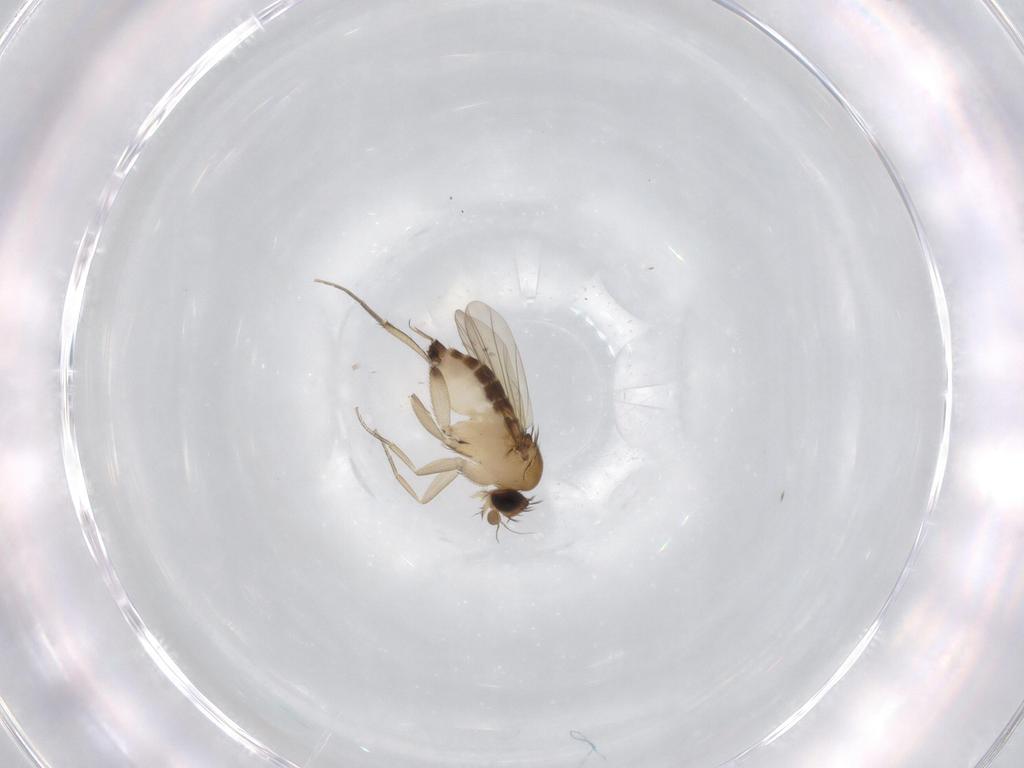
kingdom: Animalia
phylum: Arthropoda
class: Insecta
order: Diptera
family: Phoridae
